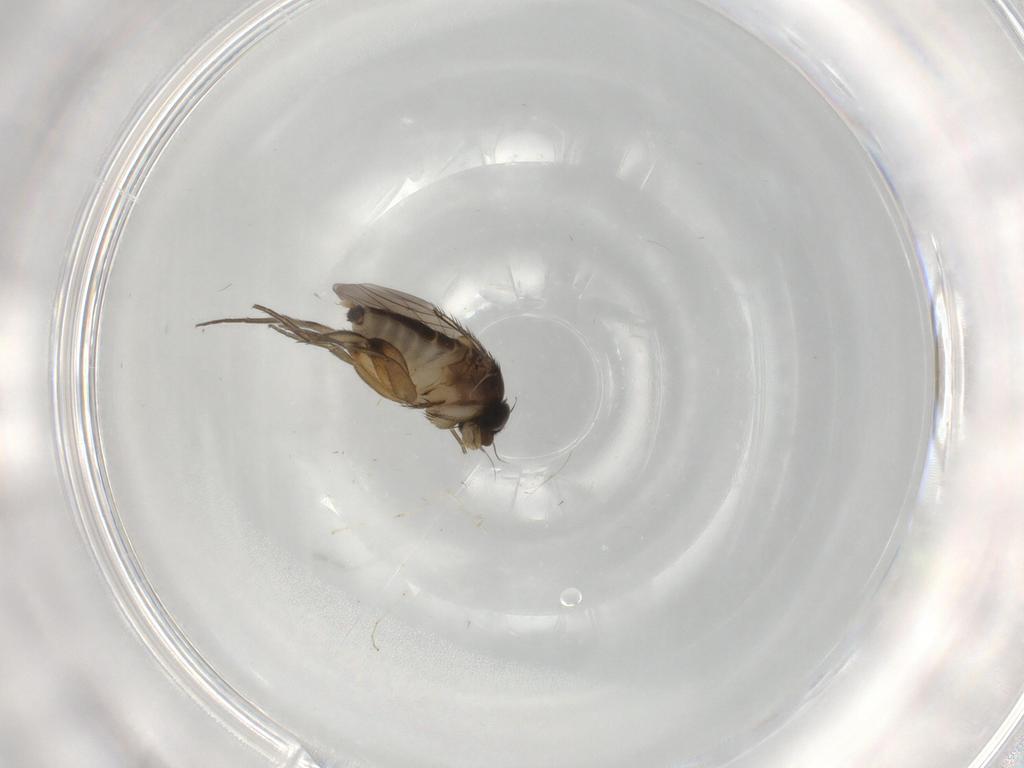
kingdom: Animalia
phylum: Arthropoda
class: Insecta
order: Diptera
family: Phoridae
